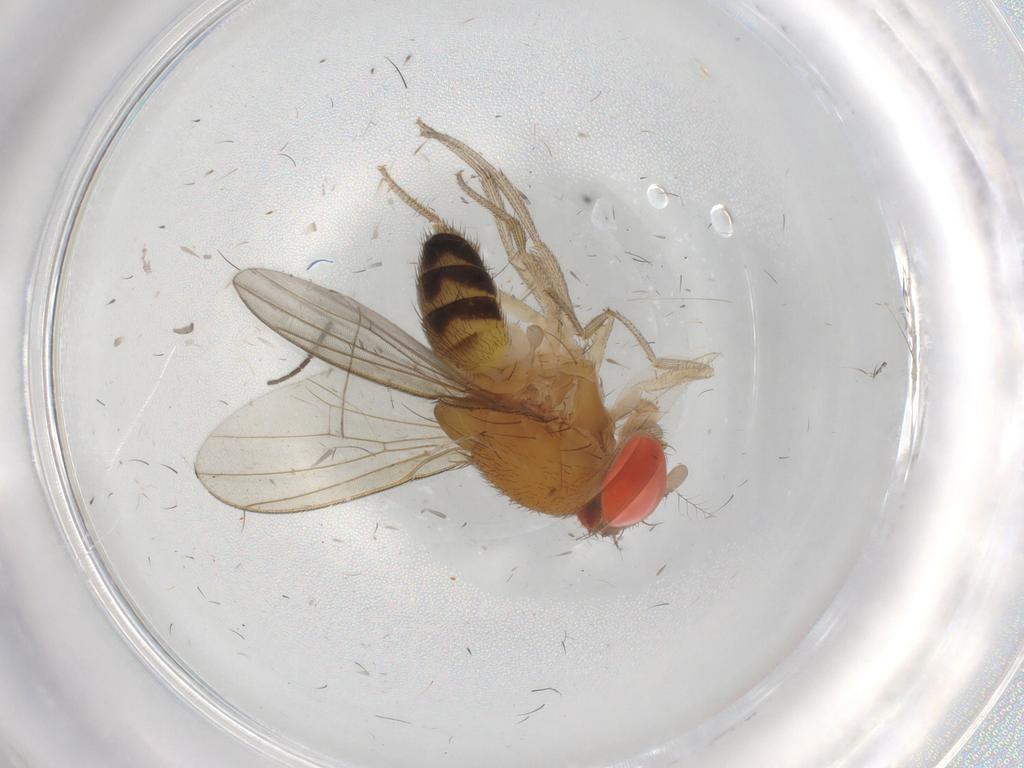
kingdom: Animalia
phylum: Arthropoda
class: Insecta
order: Diptera
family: Drosophilidae
